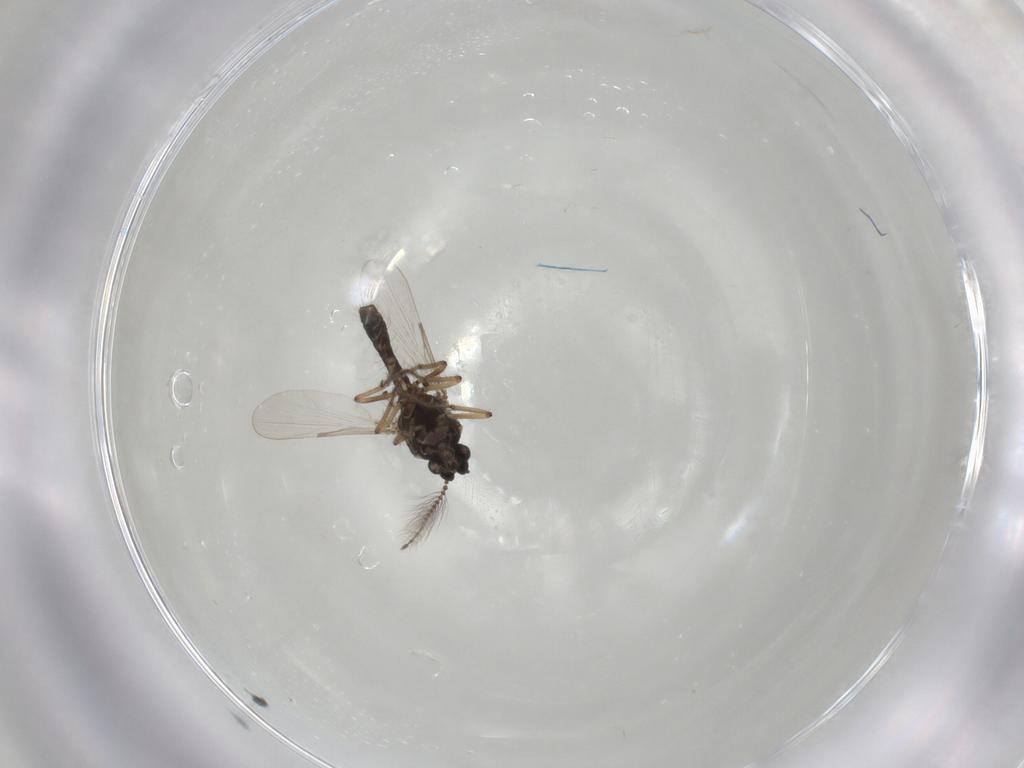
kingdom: Animalia
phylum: Arthropoda
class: Insecta
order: Diptera
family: Ceratopogonidae
